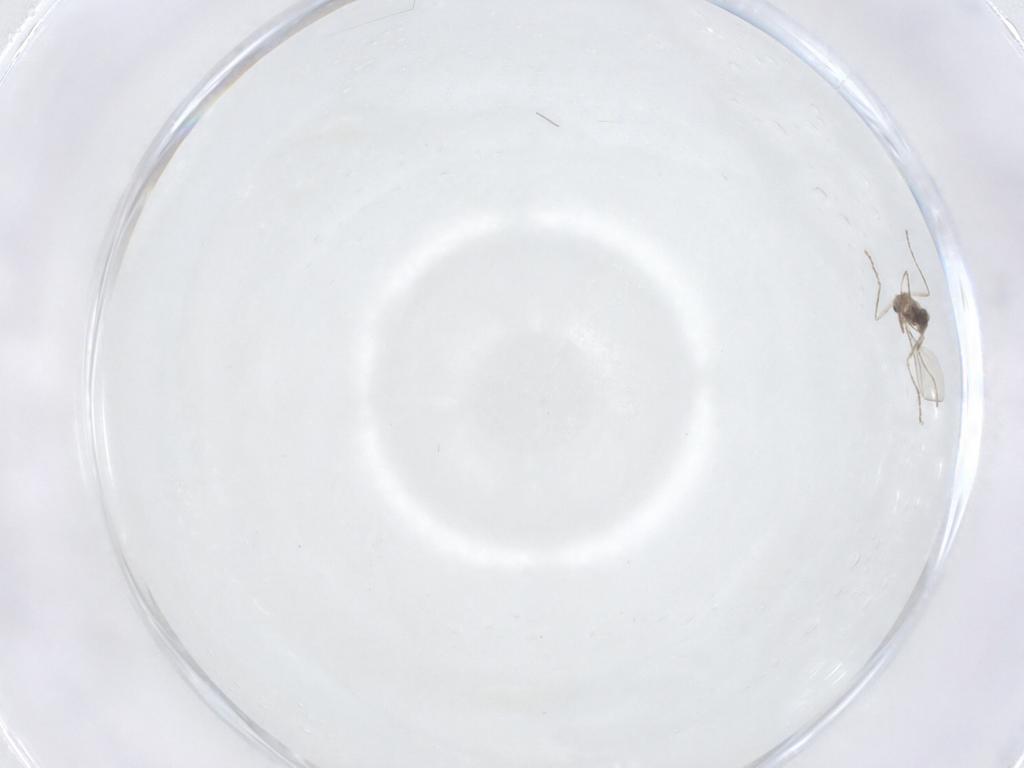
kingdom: Animalia
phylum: Arthropoda
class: Insecta
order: Diptera
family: Cecidomyiidae
